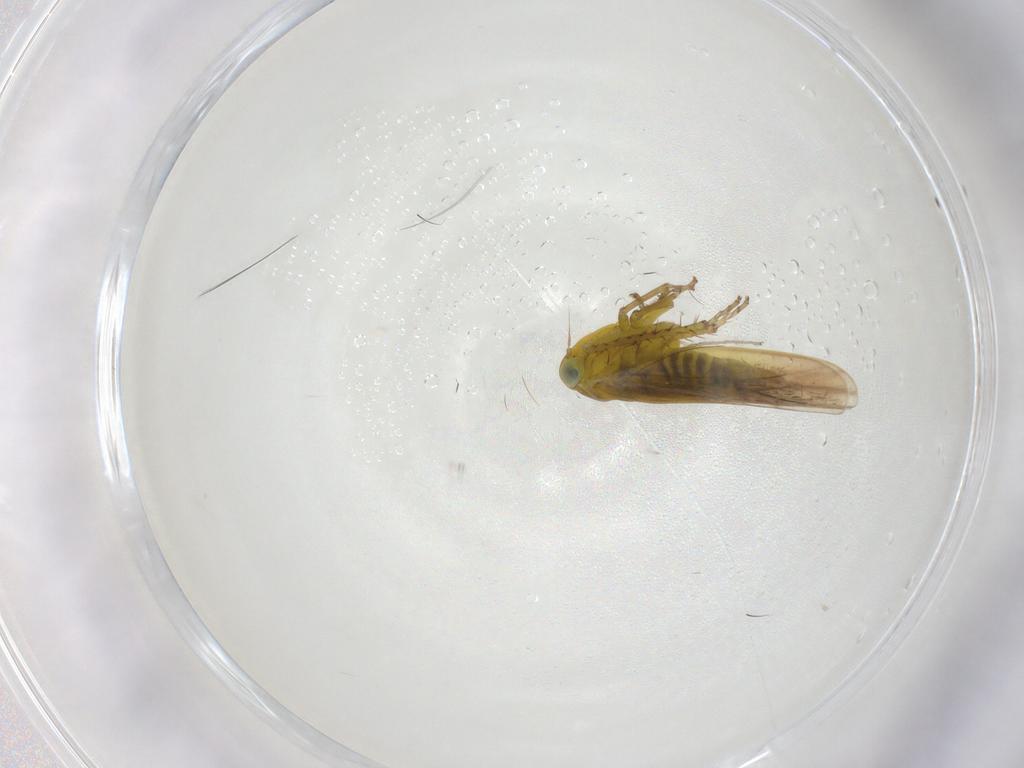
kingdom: Animalia
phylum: Arthropoda
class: Insecta
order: Hemiptera
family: Cicadellidae
